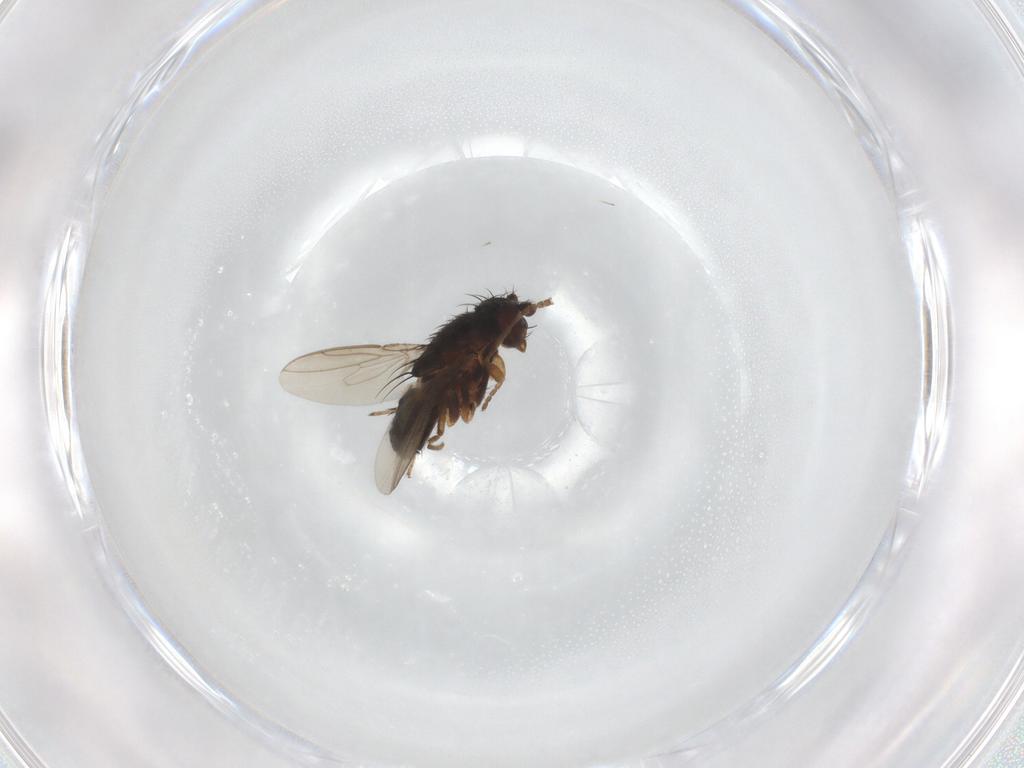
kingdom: Animalia
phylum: Arthropoda
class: Insecta
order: Diptera
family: Sphaeroceridae
